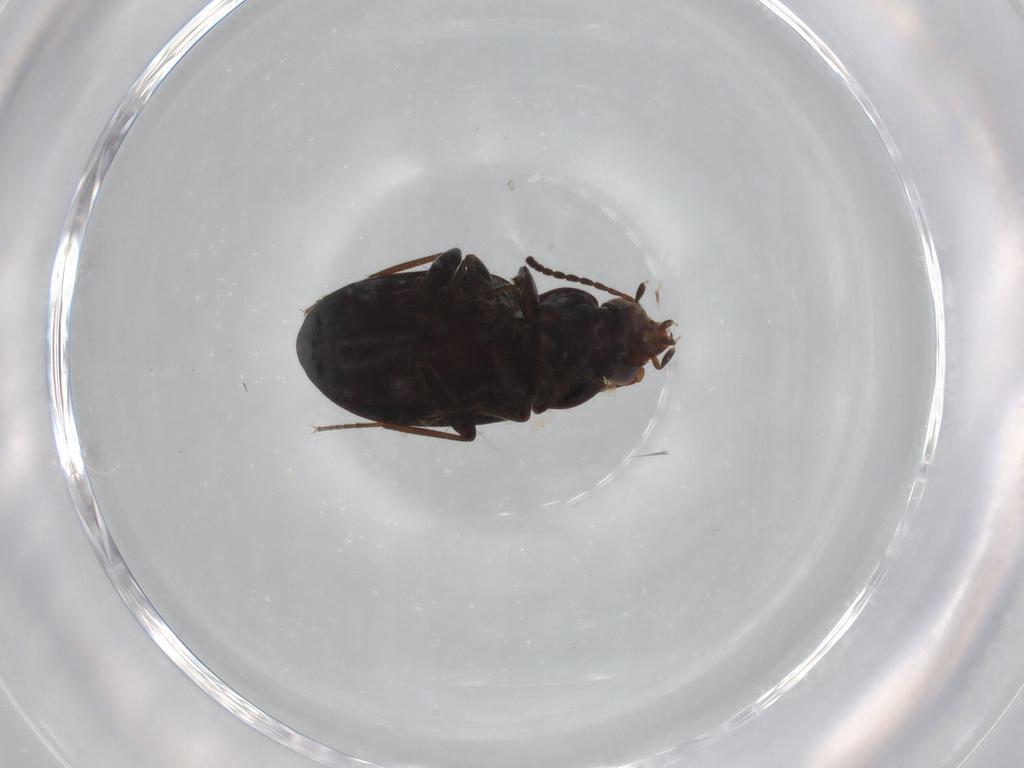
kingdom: Animalia
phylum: Arthropoda
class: Insecta
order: Coleoptera
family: Carabidae
